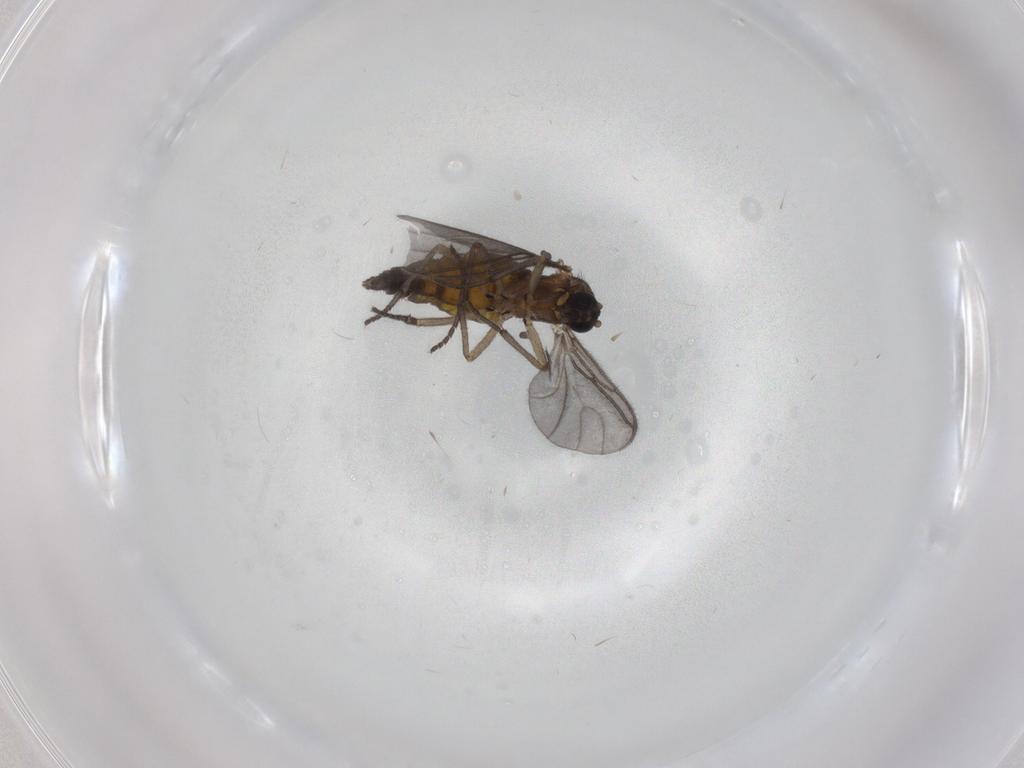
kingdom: Animalia
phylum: Arthropoda
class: Insecta
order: Diptera
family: Sciaridae
